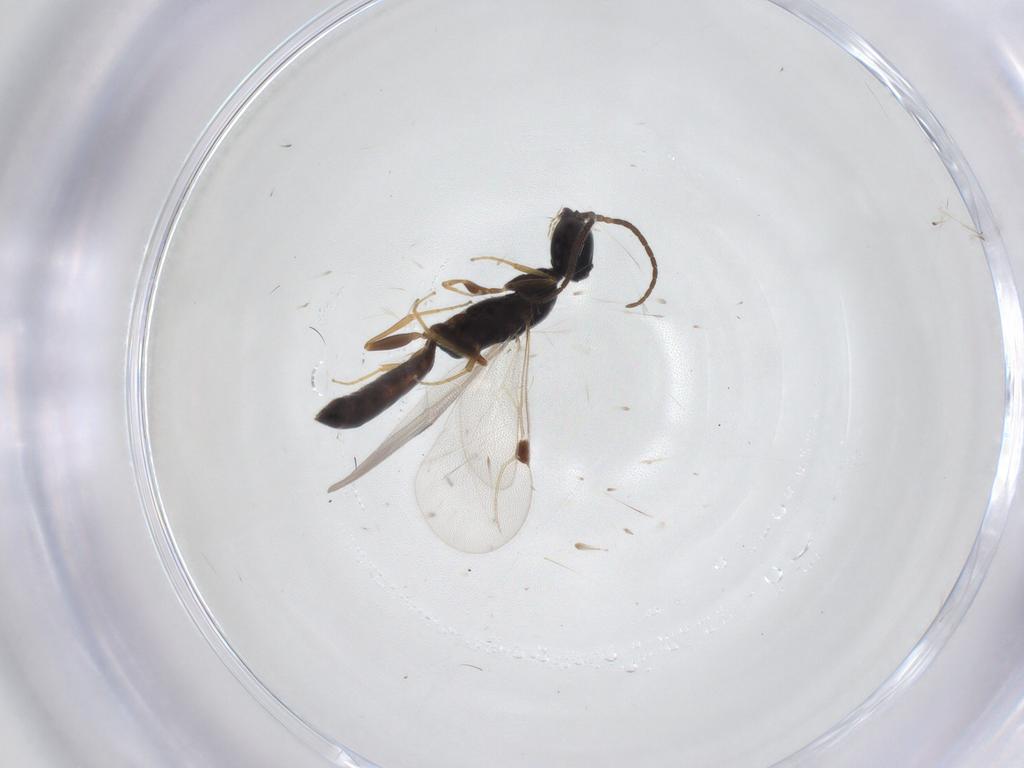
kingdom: Animalia
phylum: Arthropoda
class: Insecta
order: Hymenoptera
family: Bethylidae
